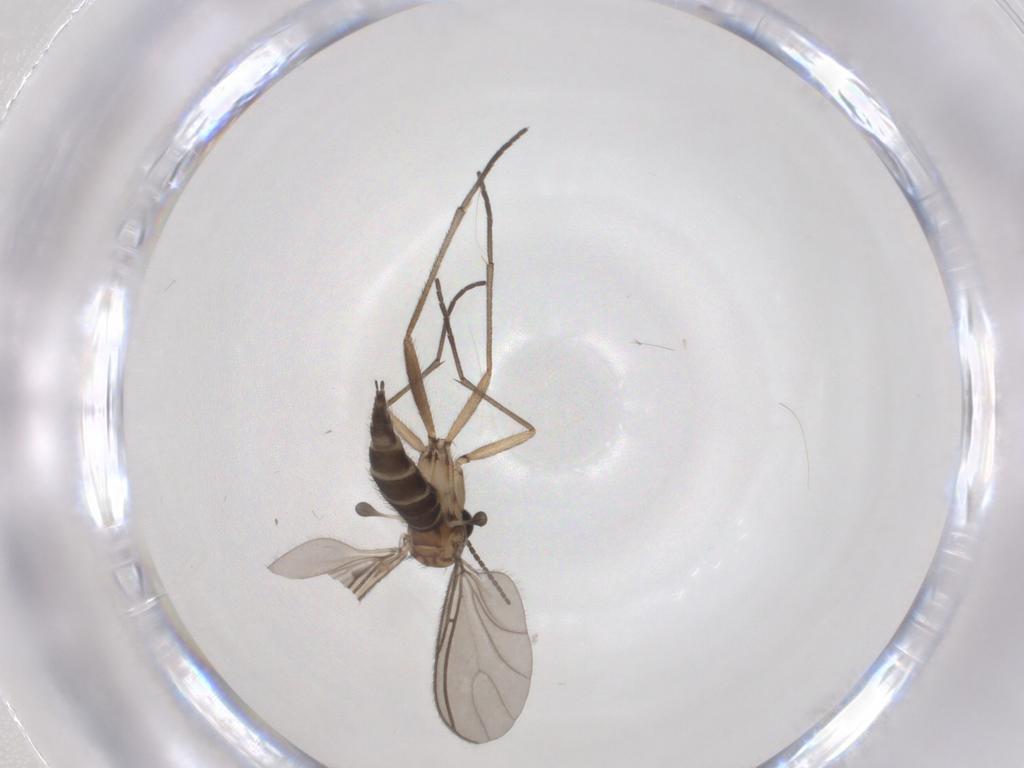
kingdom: Animalia
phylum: Arthropoda
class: Insecta
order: Diptera
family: Sciaridae
